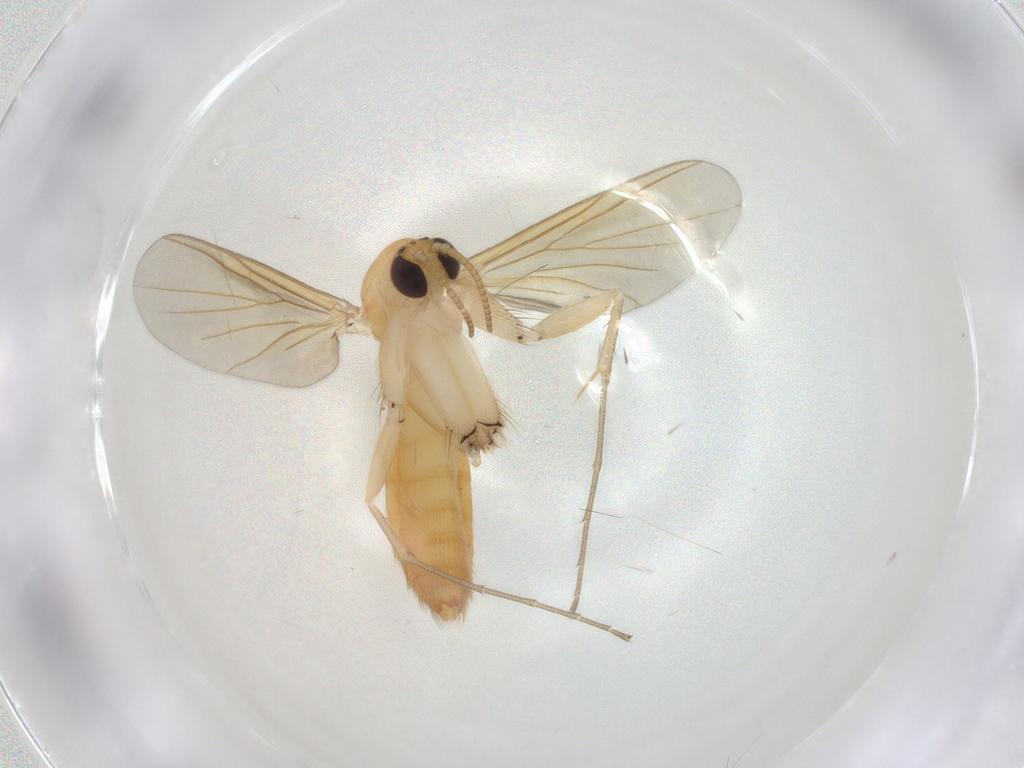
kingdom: Animalia
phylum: Arthropoda
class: Insecta
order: Diptera
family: Mycetophilidae
